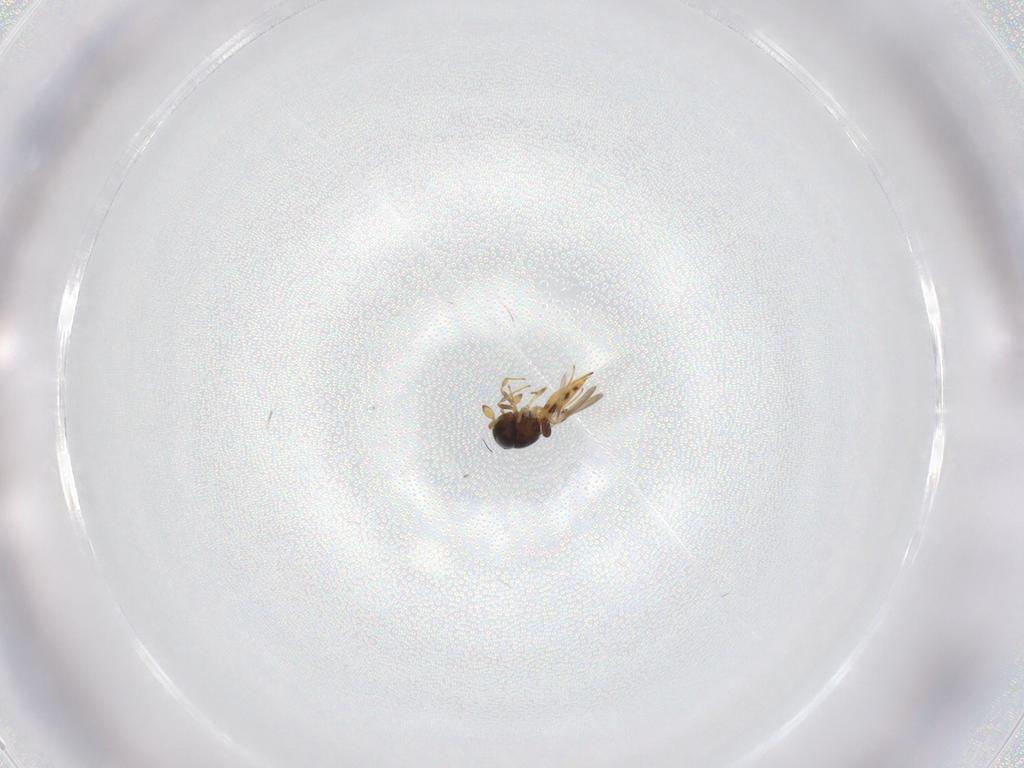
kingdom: Animalia
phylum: Arthropoda
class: Insecta
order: Hymenoptera
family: Scelionidae
